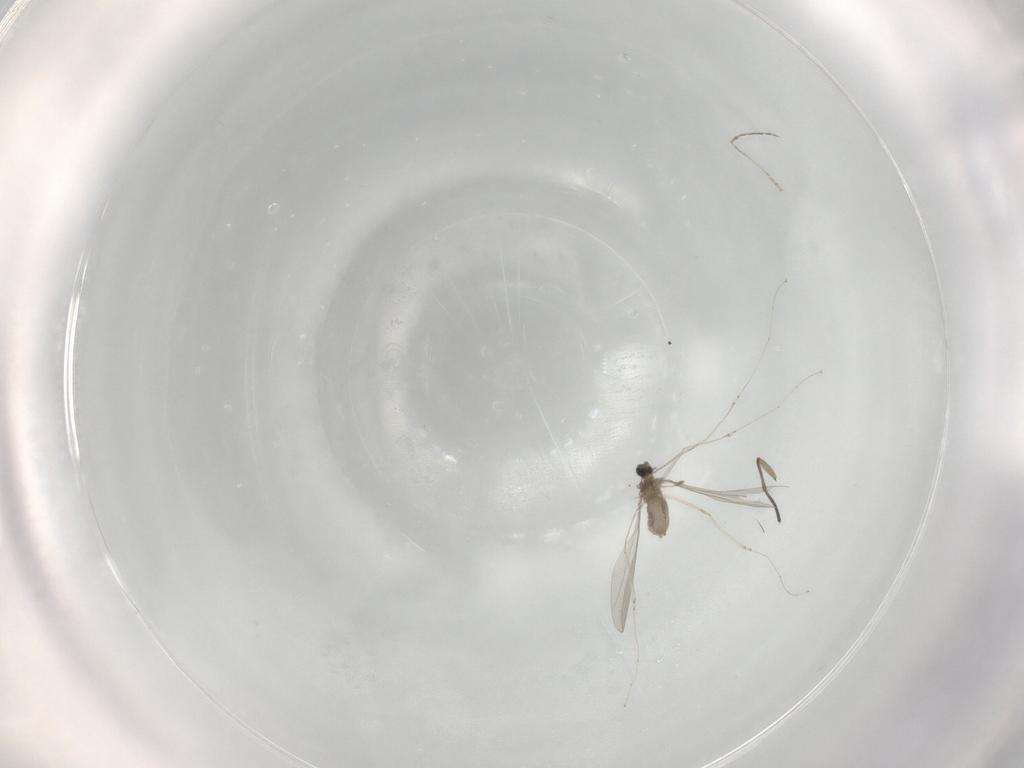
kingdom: Animalia
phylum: Arthropoda
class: Insecta
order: Diptera
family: Cecidomyiidae
